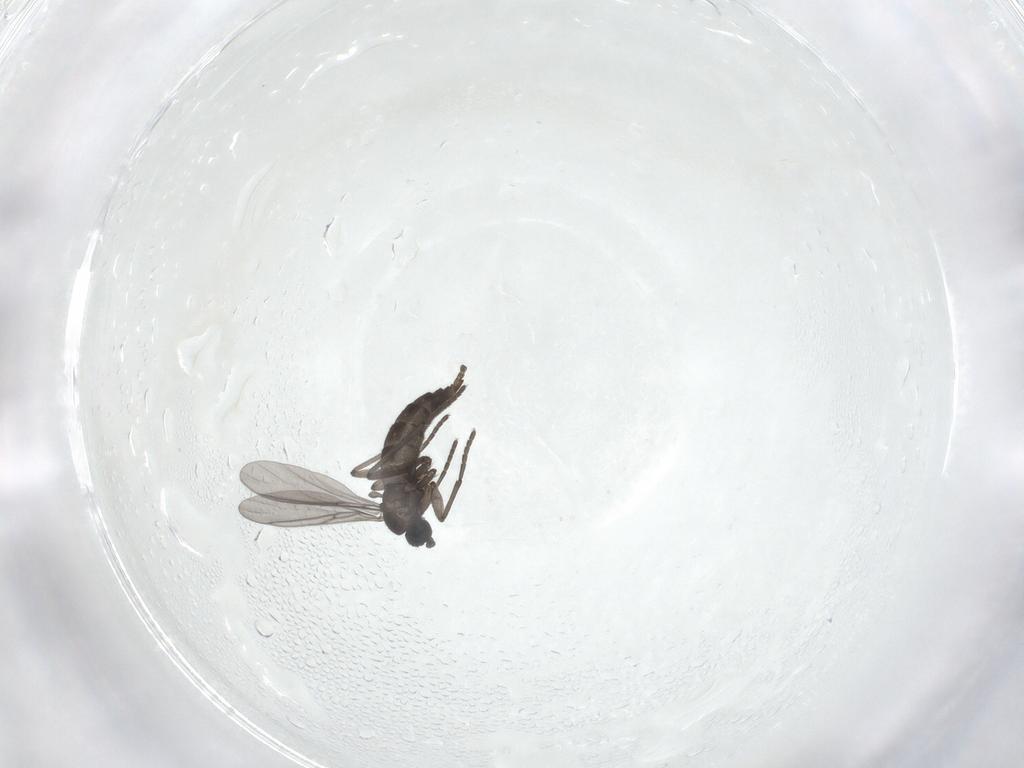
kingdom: Animalia
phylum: Arthropoda
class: Insecta
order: Diptera
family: Sciaridae
